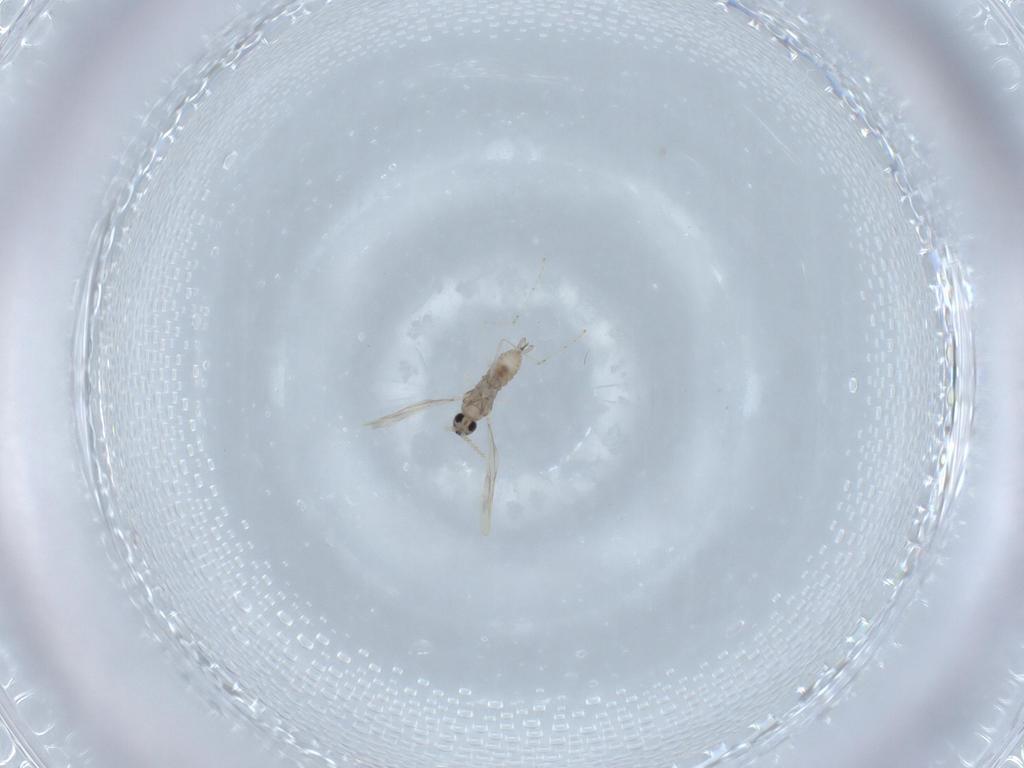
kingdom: Animalia
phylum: Arthropoda
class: Insecta
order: Diptera
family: Cecidomyiidae
